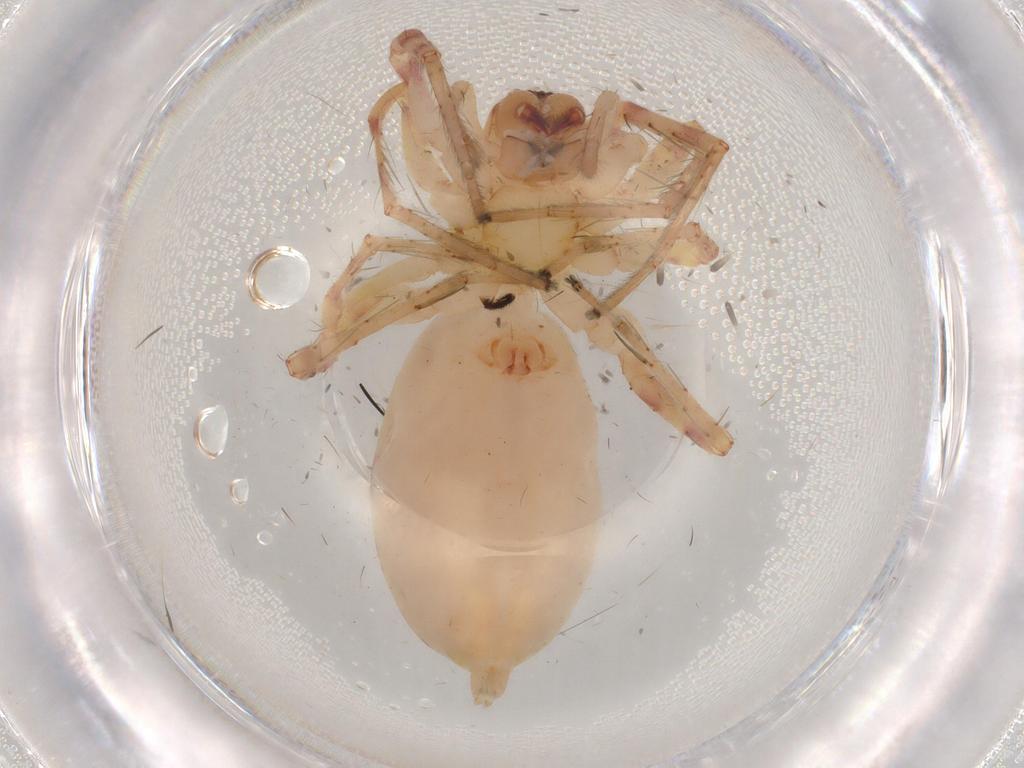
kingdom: Animalia
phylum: Arthropoda
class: Arachnida
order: Araneae
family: Anyphaenidae
